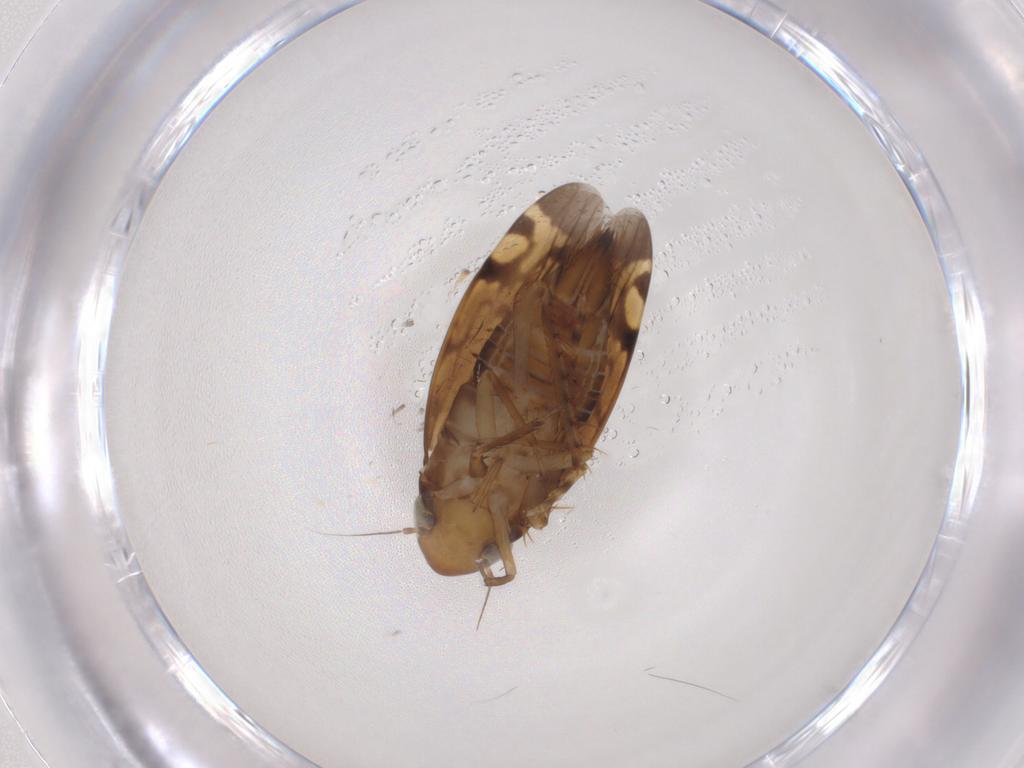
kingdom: Animalia
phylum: Arthropoda
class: Insecta
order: Hemiptera
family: Cicadellidae
